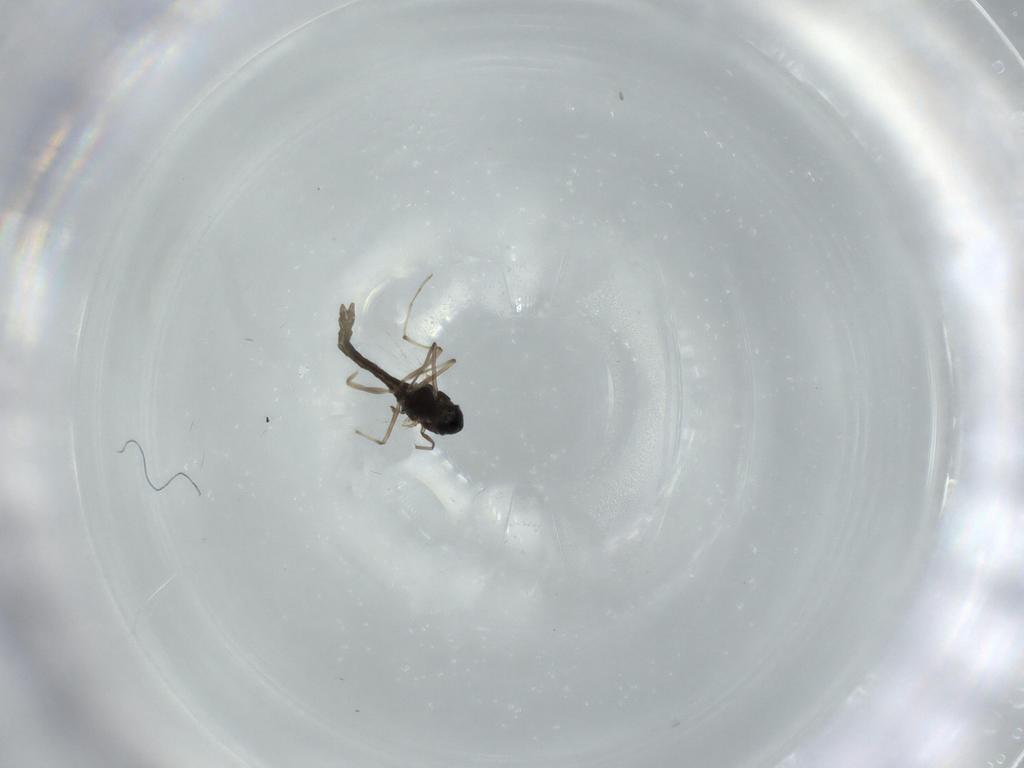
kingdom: Animalia
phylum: Arthropoda
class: Insecta
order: Diptera
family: Chironomidae
